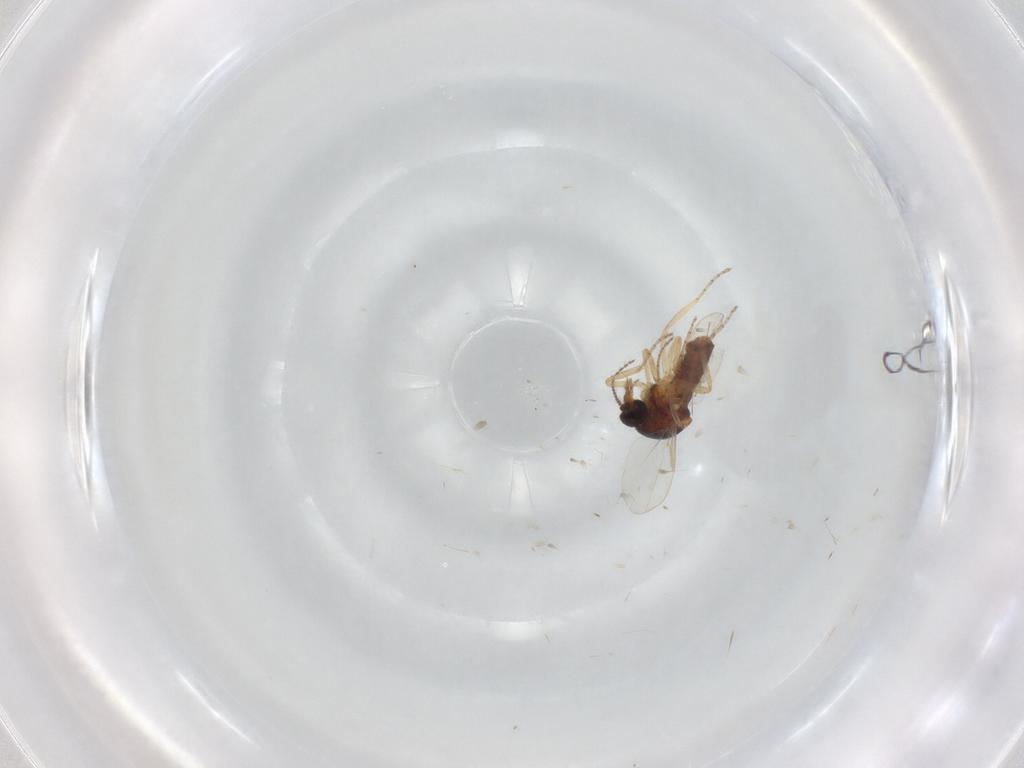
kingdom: Animalia
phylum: Arthropoda
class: Insecta
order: Diptera
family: Ceratopogonidae
